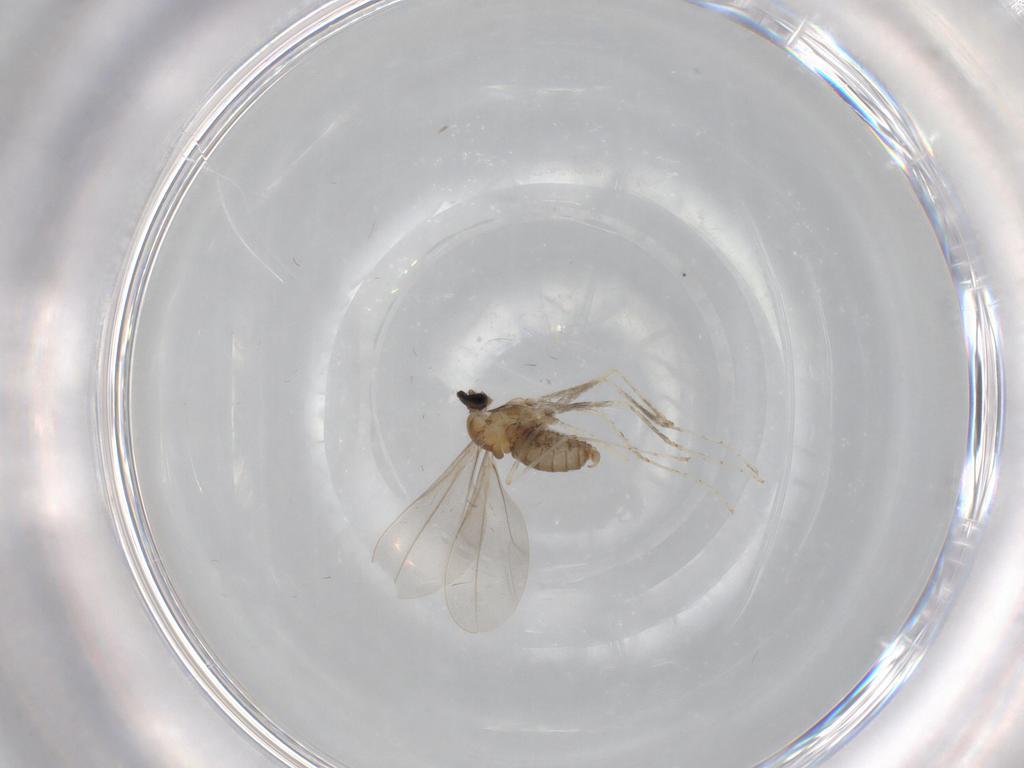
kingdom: Animalia
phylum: Arthropoda
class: Insecta
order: Diptera
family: Cecidomyiidae
